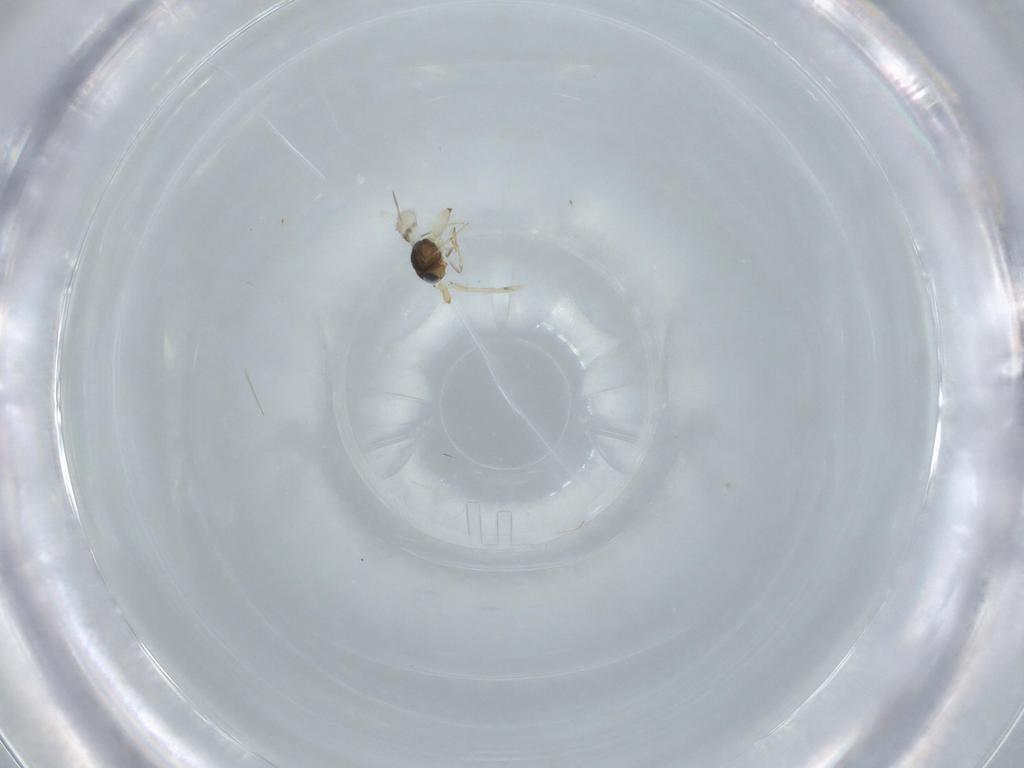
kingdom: Animalia
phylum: Arthropoda
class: Insecta
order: Hymenoptera
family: Scelionidae
